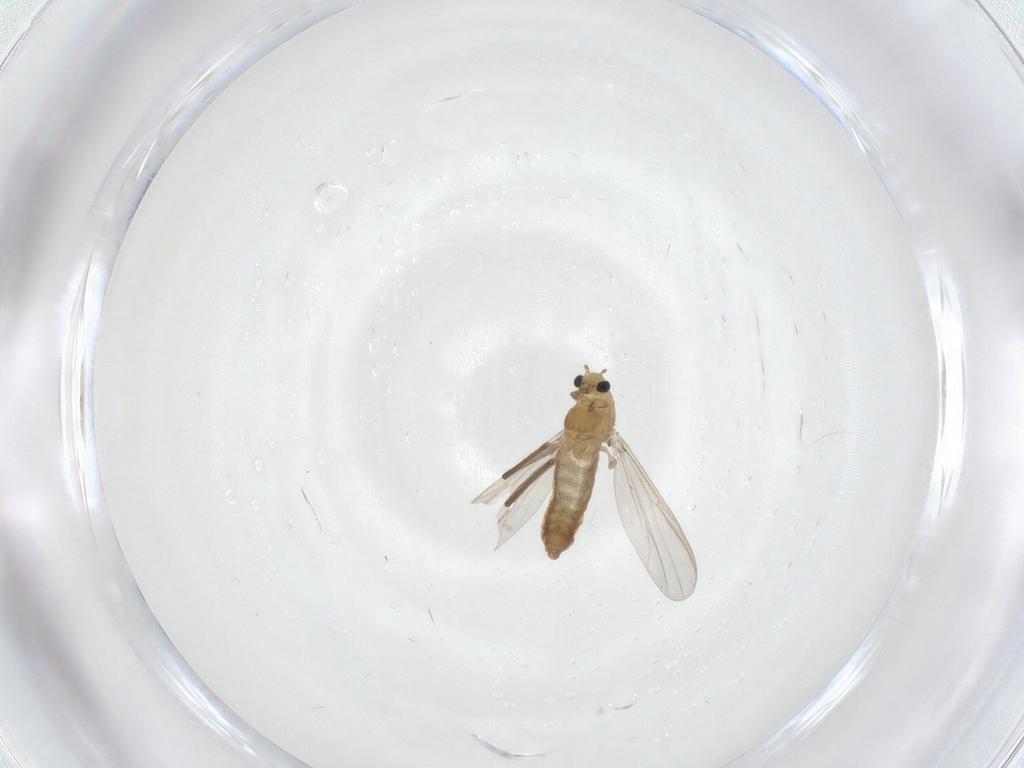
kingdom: Animalia
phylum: Arthropoda
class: Insecta
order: Diptera
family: Chironomidae
